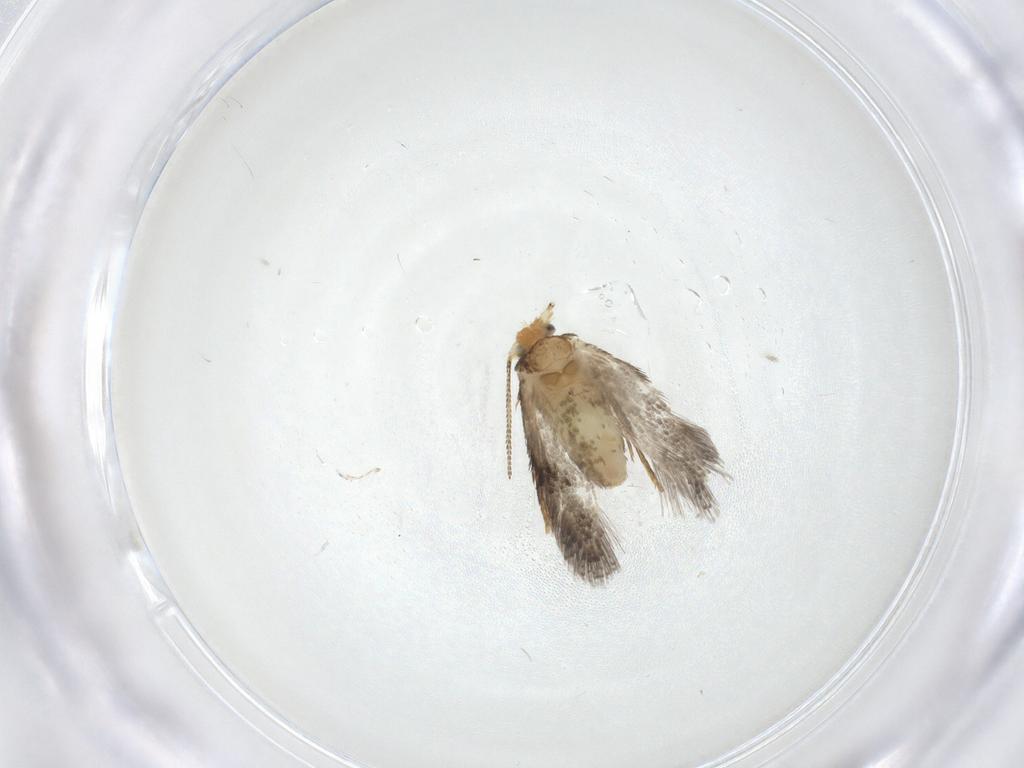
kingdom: Animalia
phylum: Arthropoda
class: Insecta
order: Lepidoptera
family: Nepticulidae
